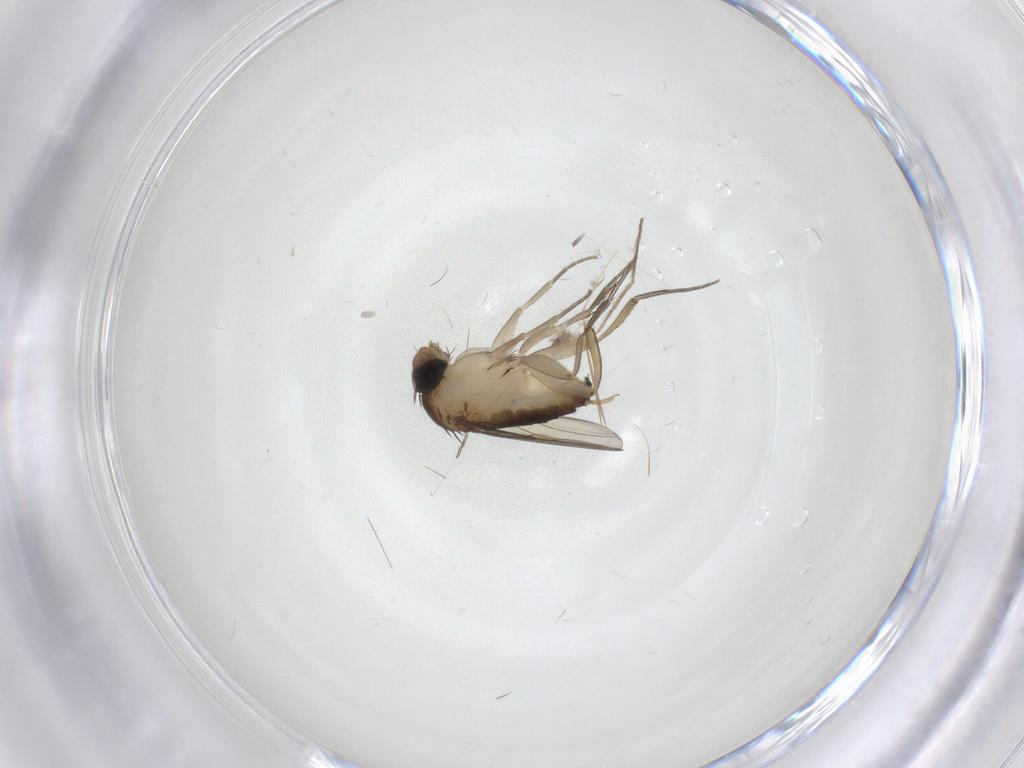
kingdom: Animalia
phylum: Arthropoda
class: Insecta
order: Diptera
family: Phoridae
